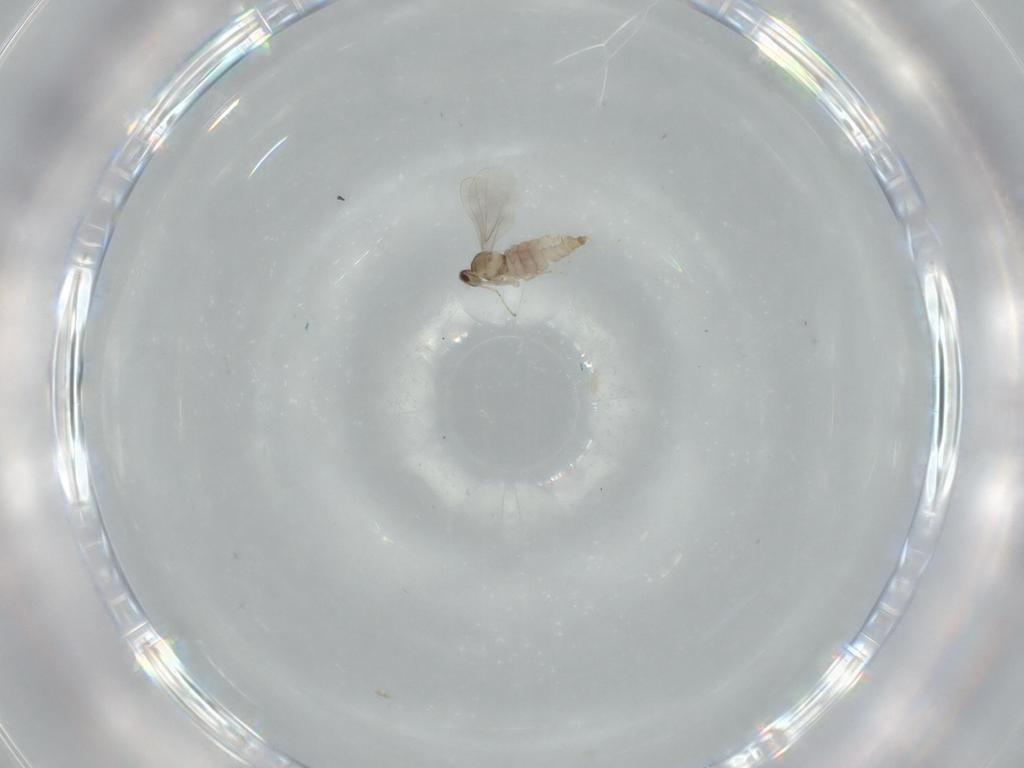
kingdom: Animalia
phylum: Arthropoda
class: Insecta
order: Diptera
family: Cecidomyiidae
